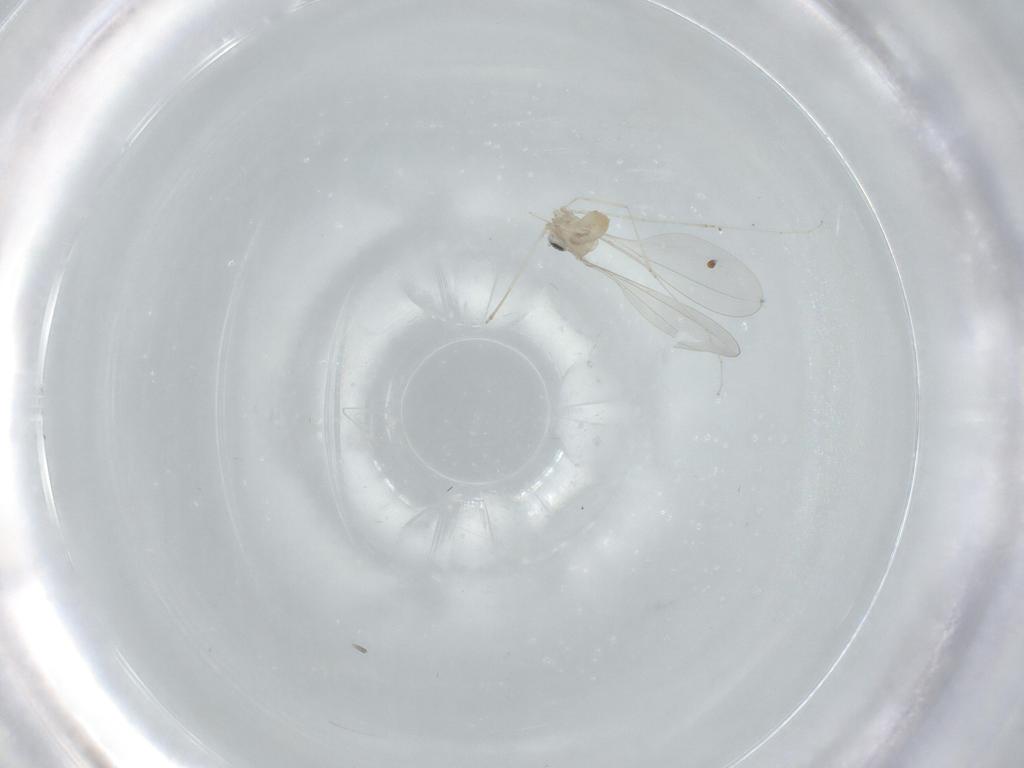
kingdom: Animalia
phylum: Arthropoda
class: Insecta
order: Diptera
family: Cecidomyiidae
